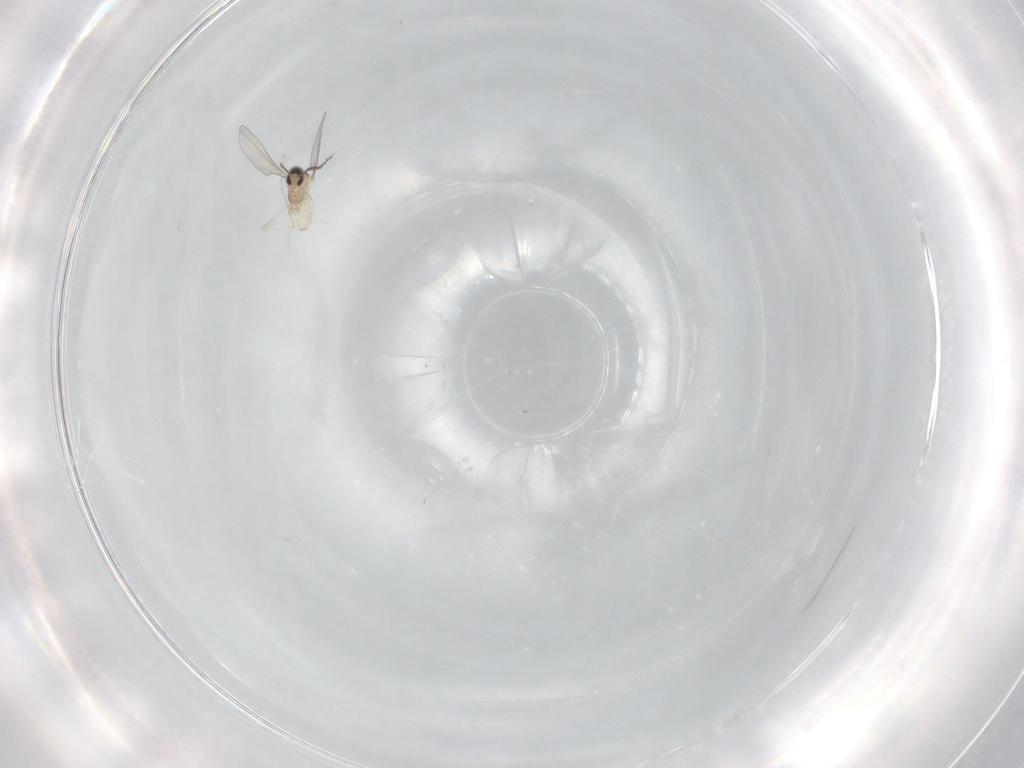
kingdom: Animalia
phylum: Arthropoda
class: Insecta
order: Diptera
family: Cecidomyiidae
